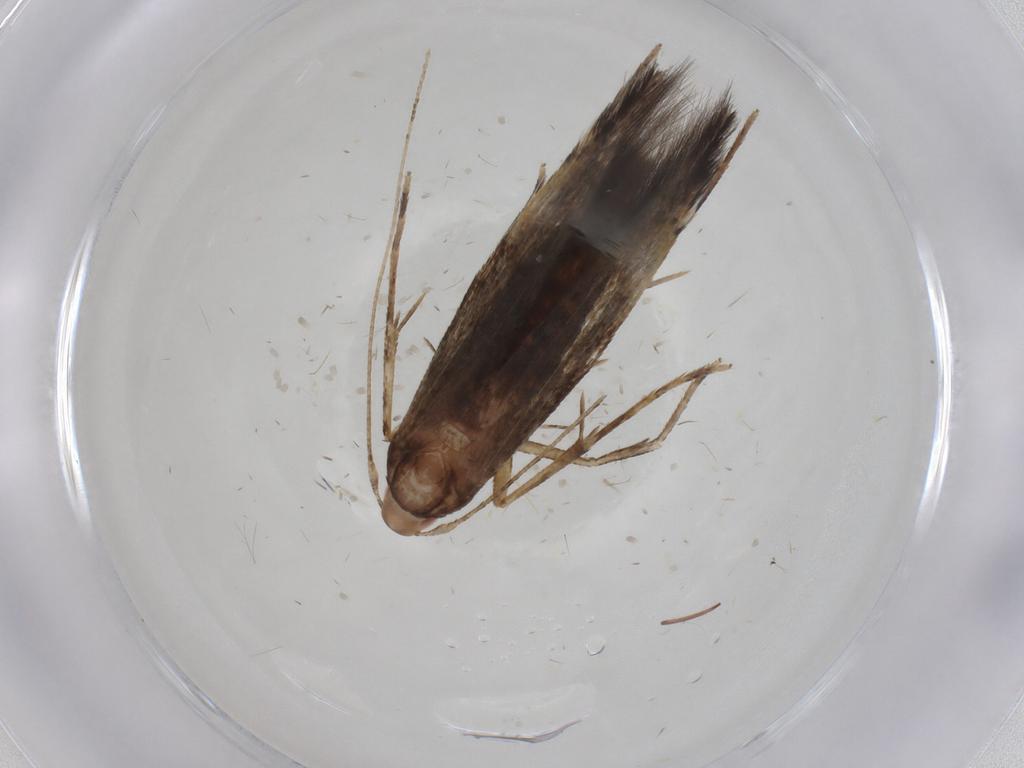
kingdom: Animalia
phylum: Arthropoda
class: Insecta
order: Lepidoptera
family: Cosmopterigidae
